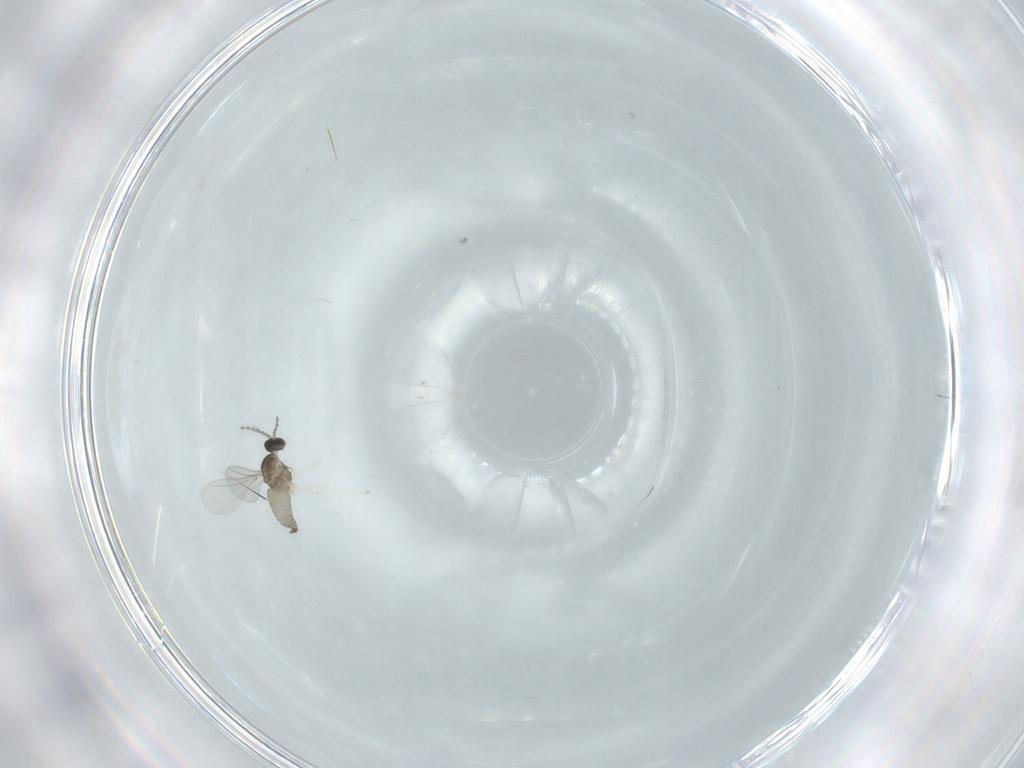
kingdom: Animalia
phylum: Arthropoda
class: Insecta
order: Diptera
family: Cecidomyiidae
